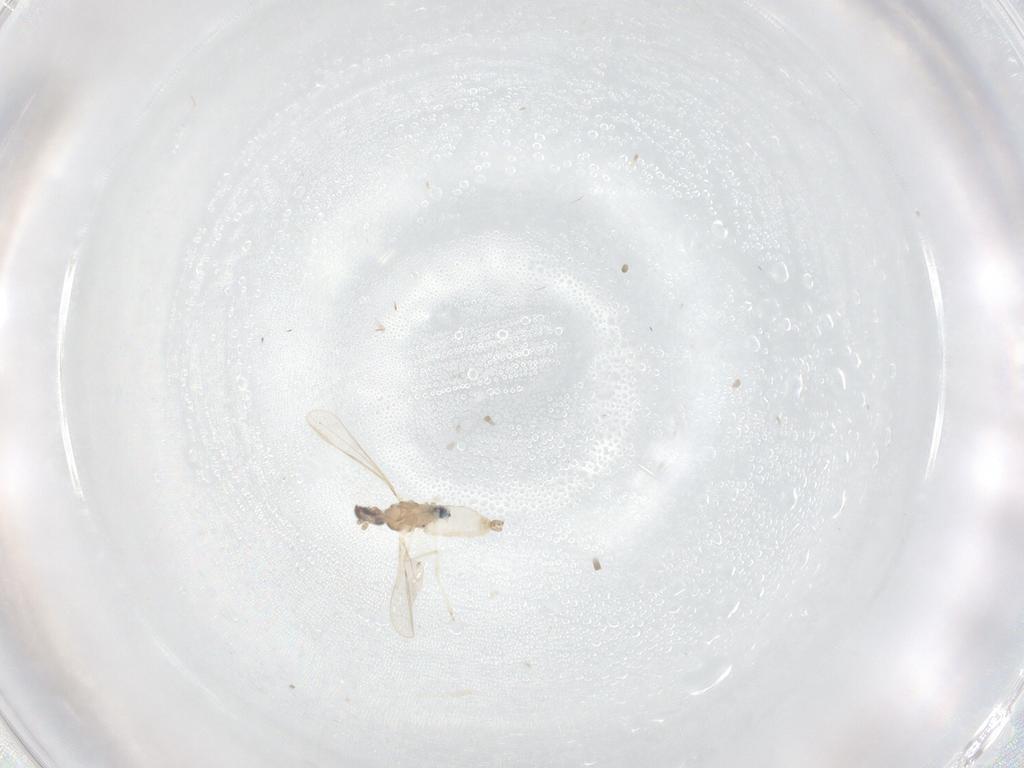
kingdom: Animalia
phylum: Arthropoda
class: Insecta
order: Diptera
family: Cecidomyiidae
